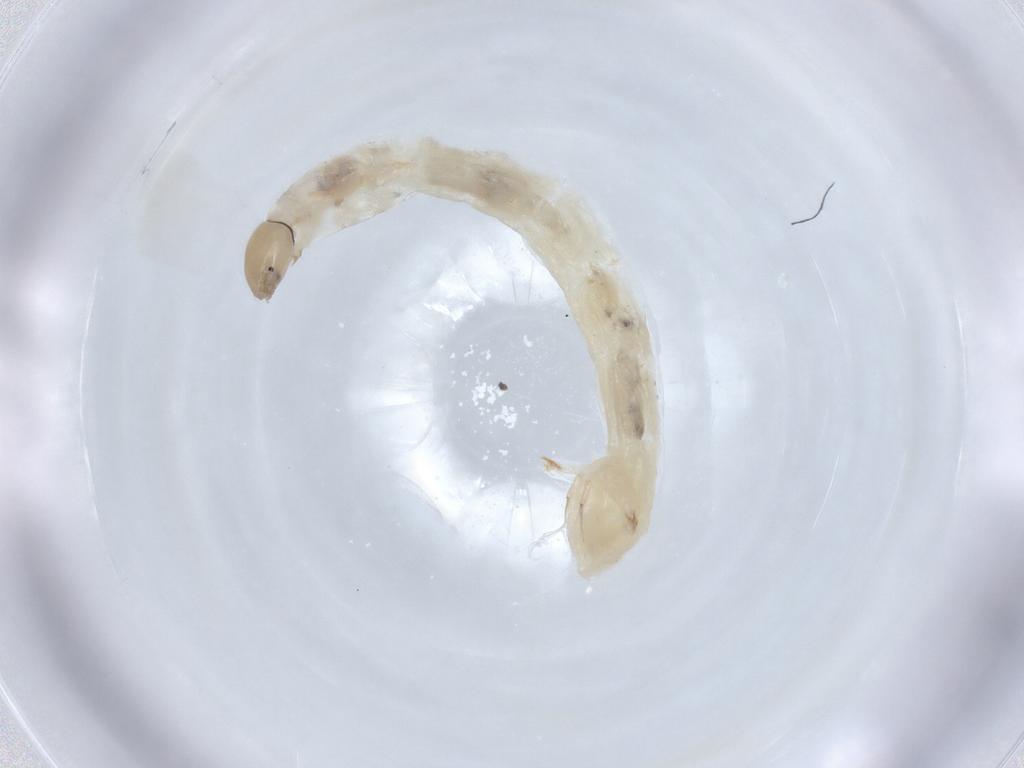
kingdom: Animalia
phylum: Arthropoda
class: Insecta
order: Diptera
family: Chironomidae
